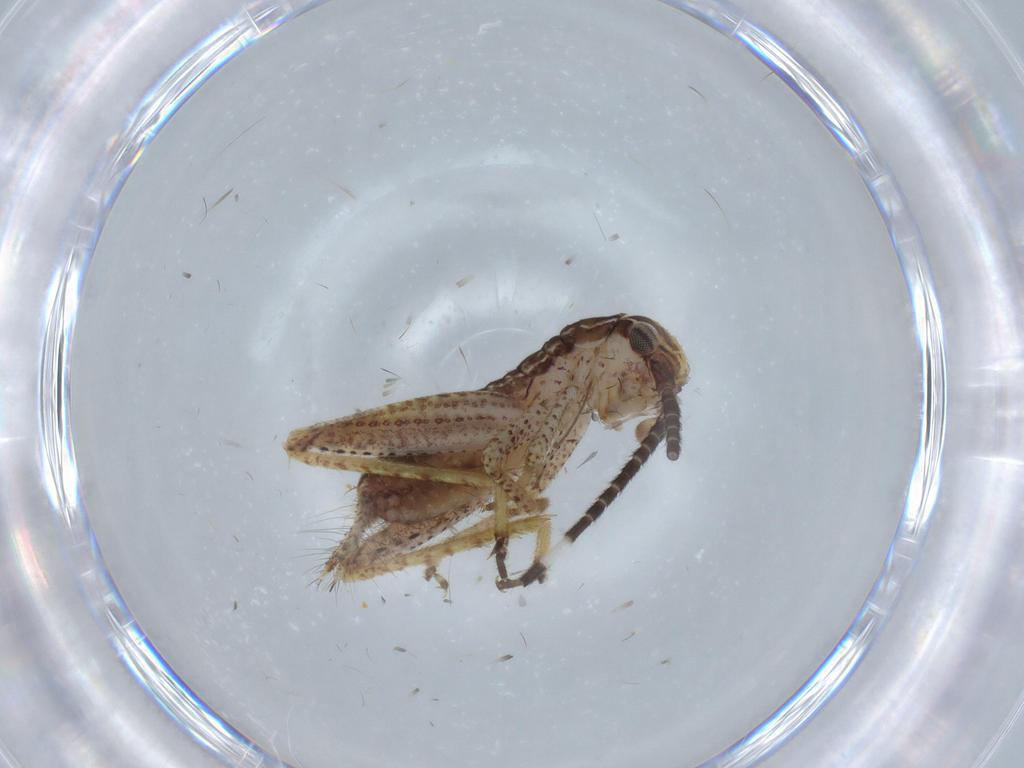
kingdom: Animalia
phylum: Arthropoda
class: Insecta
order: Orthoptera
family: Gryllidae
